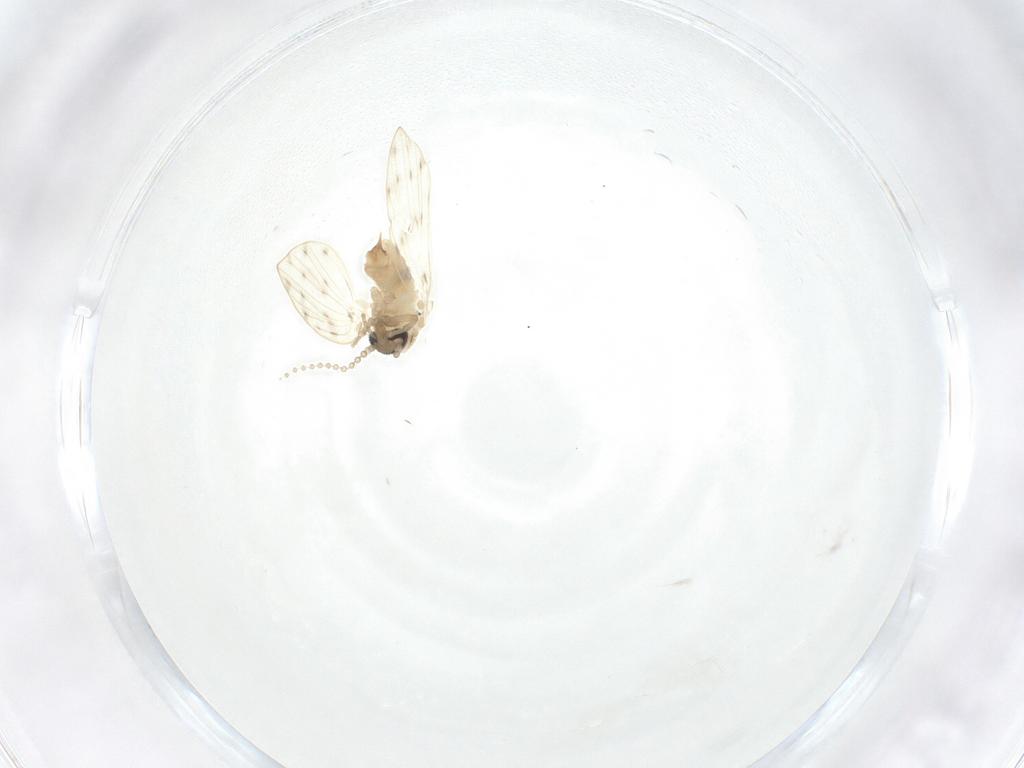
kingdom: Animalia
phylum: Arthropoda
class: Insecta
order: Diptera
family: Psychodidae
